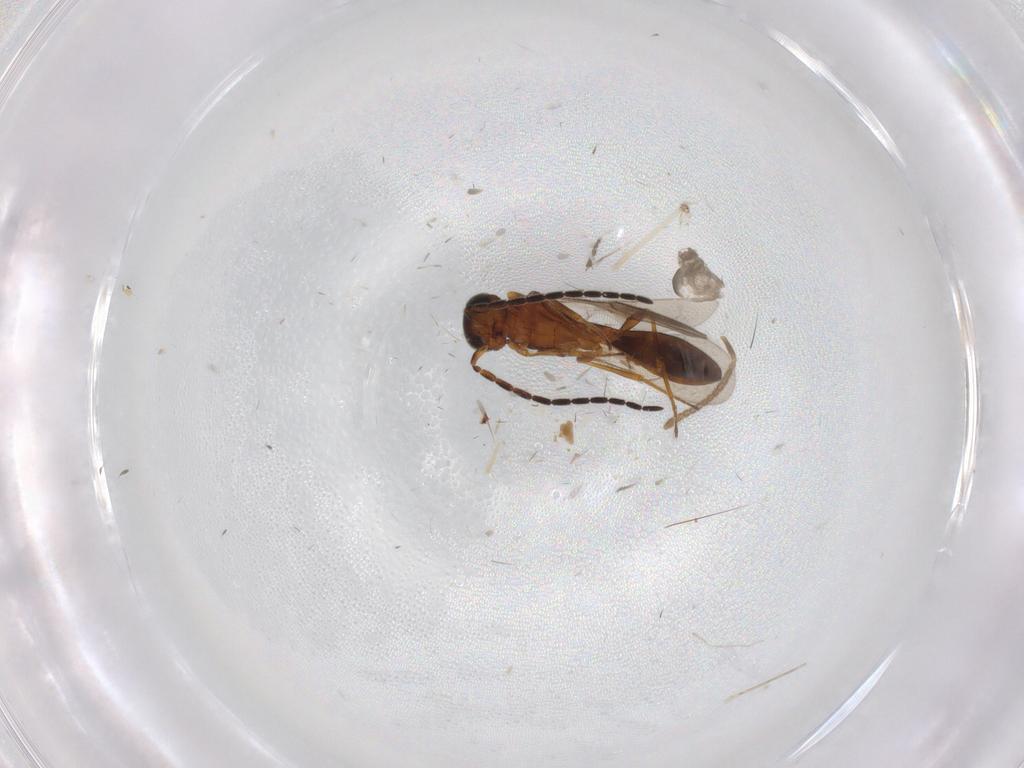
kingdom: Animalia
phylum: Arthropoda
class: Insecta
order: Hymenoptera
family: Scelionidae
